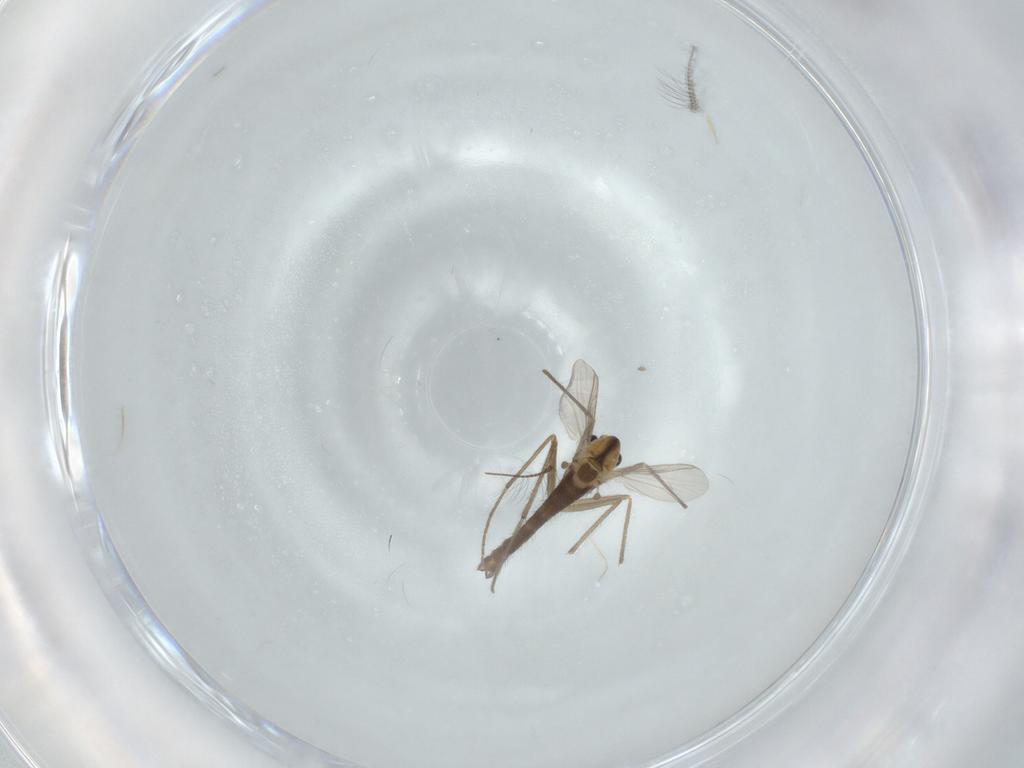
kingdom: Animalia
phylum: Arthropoda
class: Insecta
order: Diptera
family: Chironomidae
